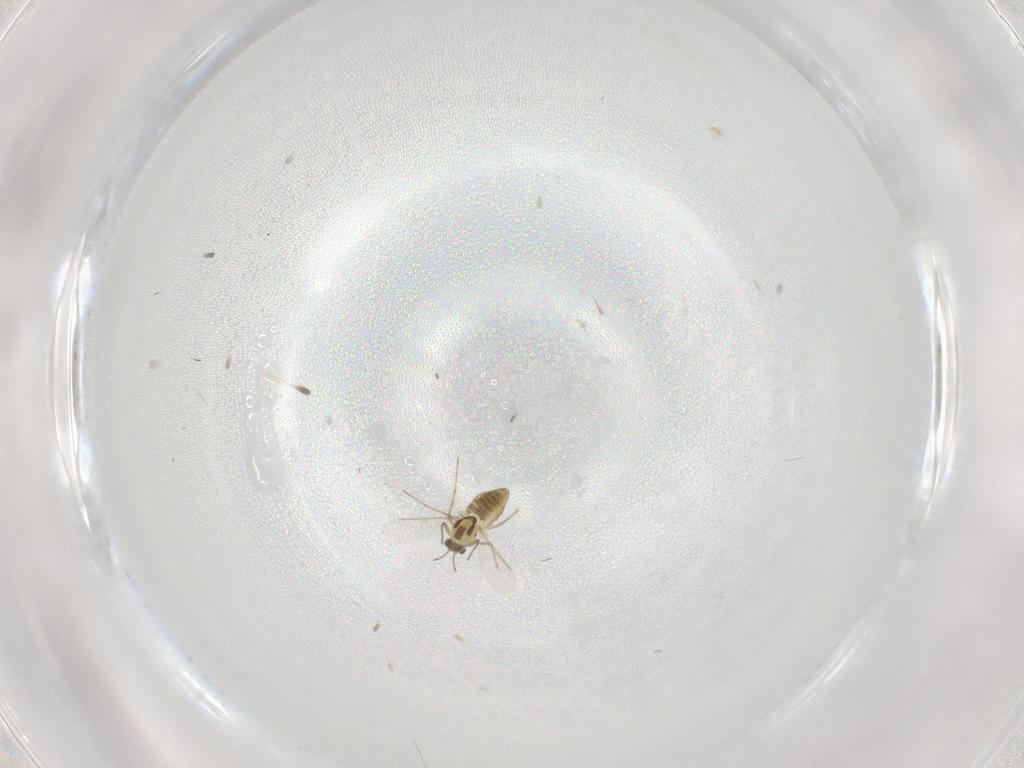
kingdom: Animalia
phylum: Arthropoda
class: Insecta
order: Diptera
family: Chironomidae
